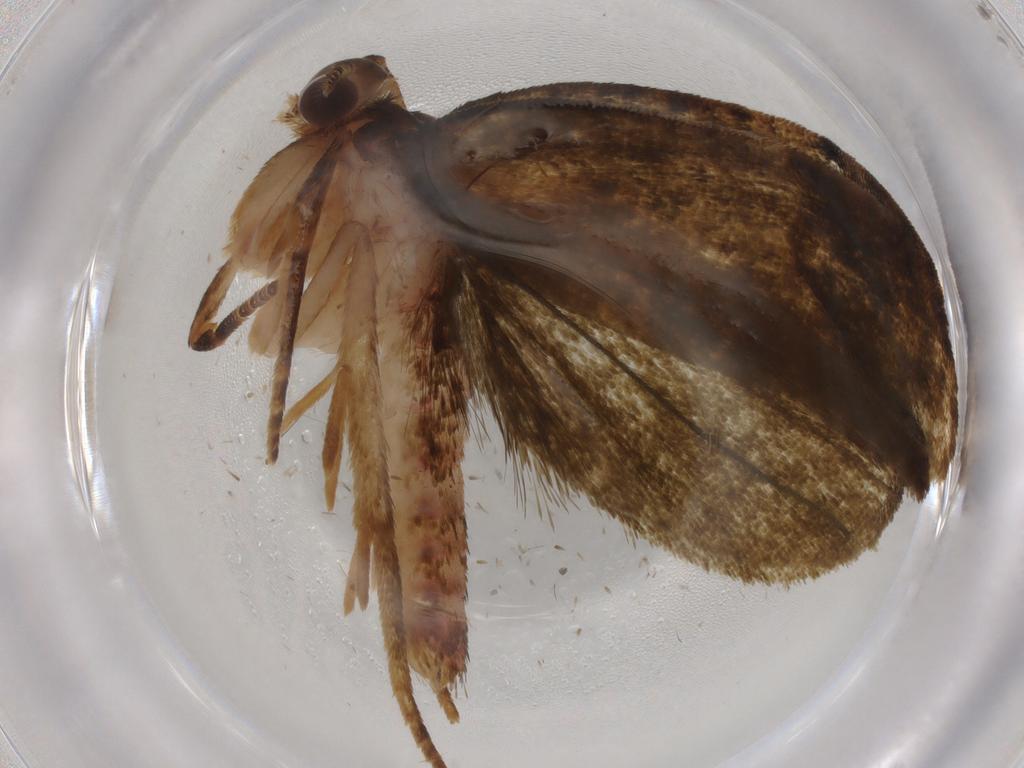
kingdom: Animalia
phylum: Arthropoda
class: Insecta
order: Lepidoptera
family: Geometridae
